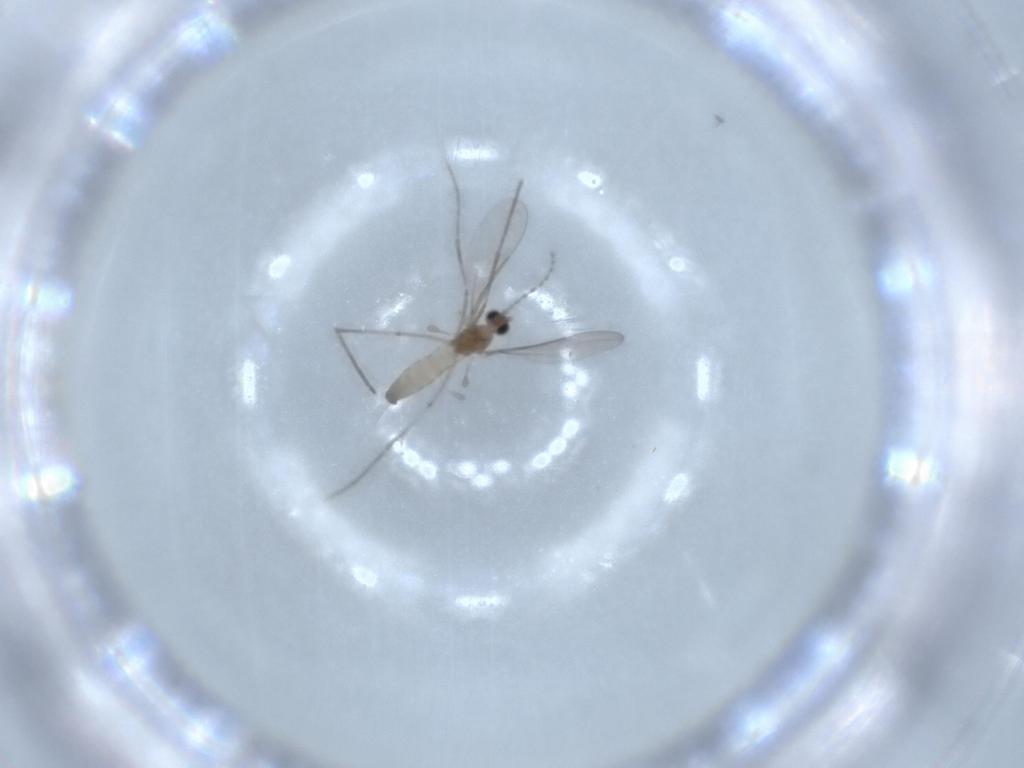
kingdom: Animalia
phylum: Arthropoda
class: Insecta
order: Diptera
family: Cecidomyiidae
